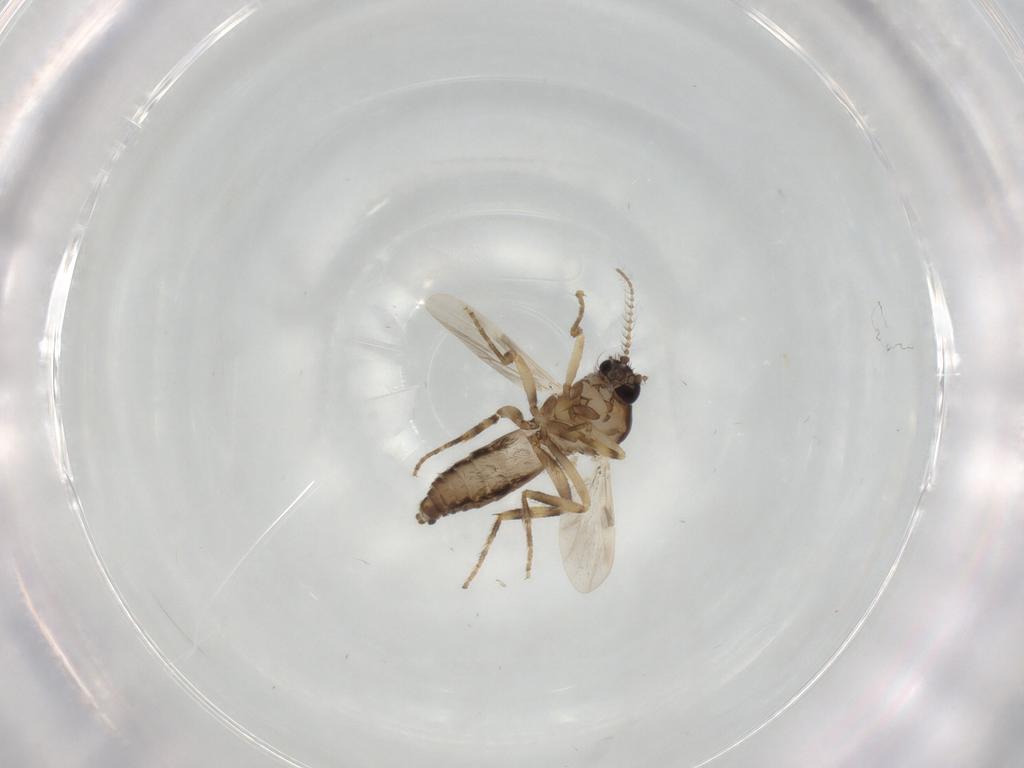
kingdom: Animalia
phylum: Arthropoda
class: Insecta
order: Diptera
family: Ceratopogonidae
